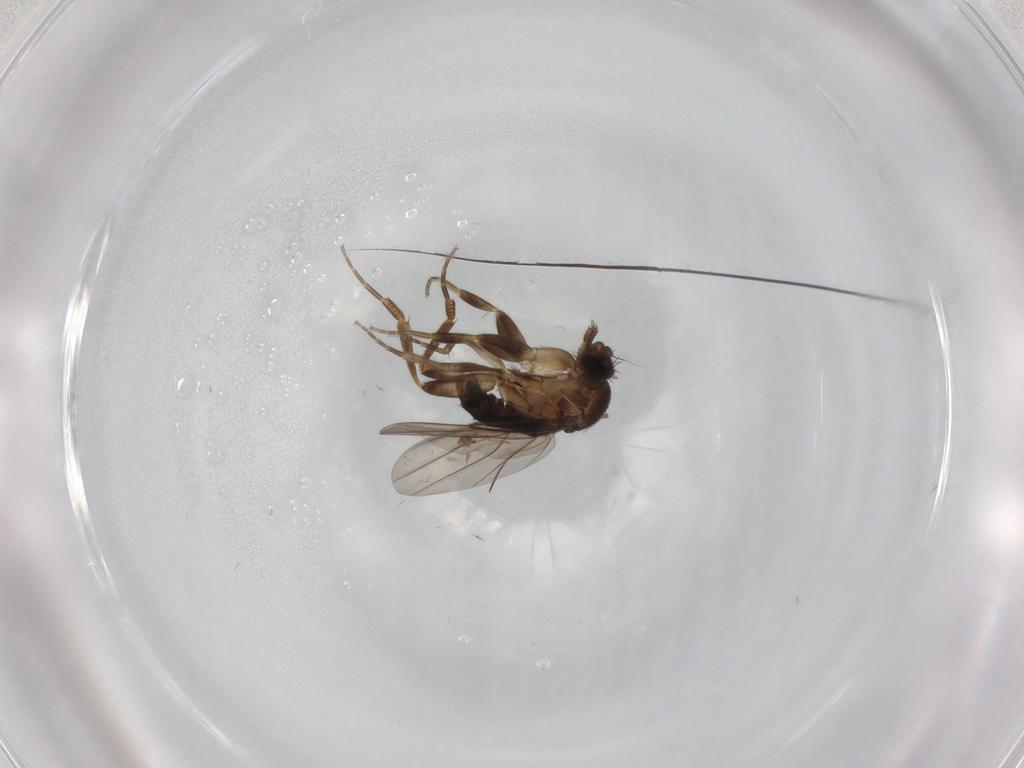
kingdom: Animalia
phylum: Arthropoda
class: Insecta
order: Diptera
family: Phoridae
